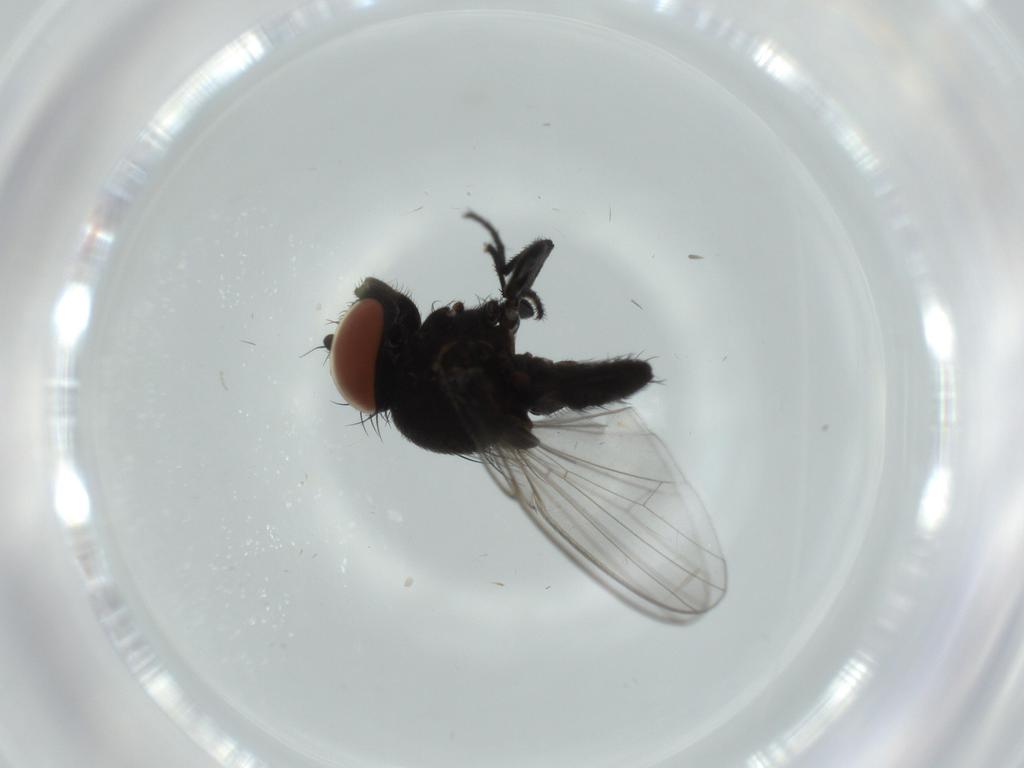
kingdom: Animalia
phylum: Arthropoda
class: Insecta
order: Diptera
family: Milichiidae
